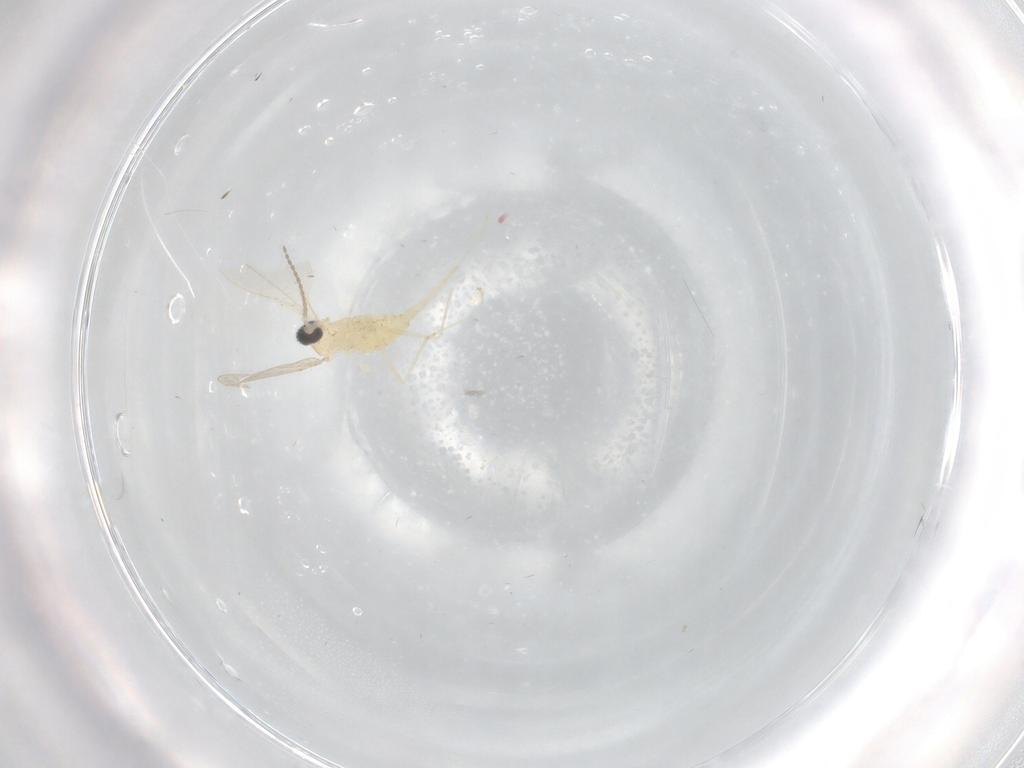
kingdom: Animalia
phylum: Arthropoda
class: Insecta
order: Diptera
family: Cecidomyiidae
